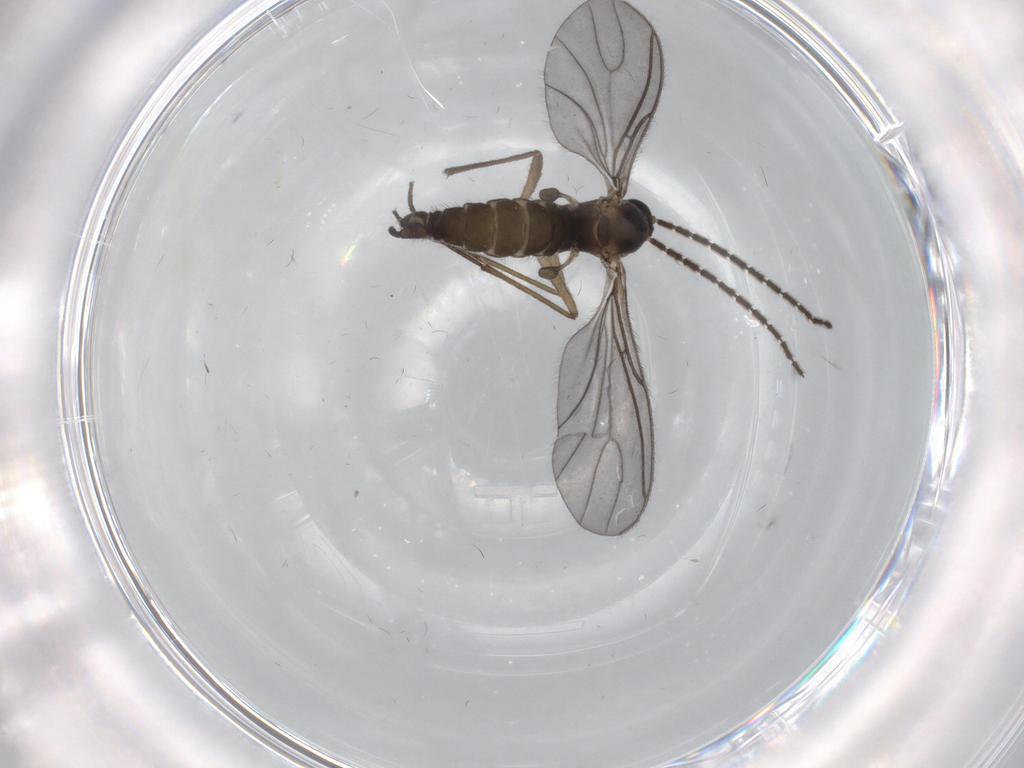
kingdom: Animalia
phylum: Arthropoda
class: Insecta
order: Diptera
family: Sciaridae
